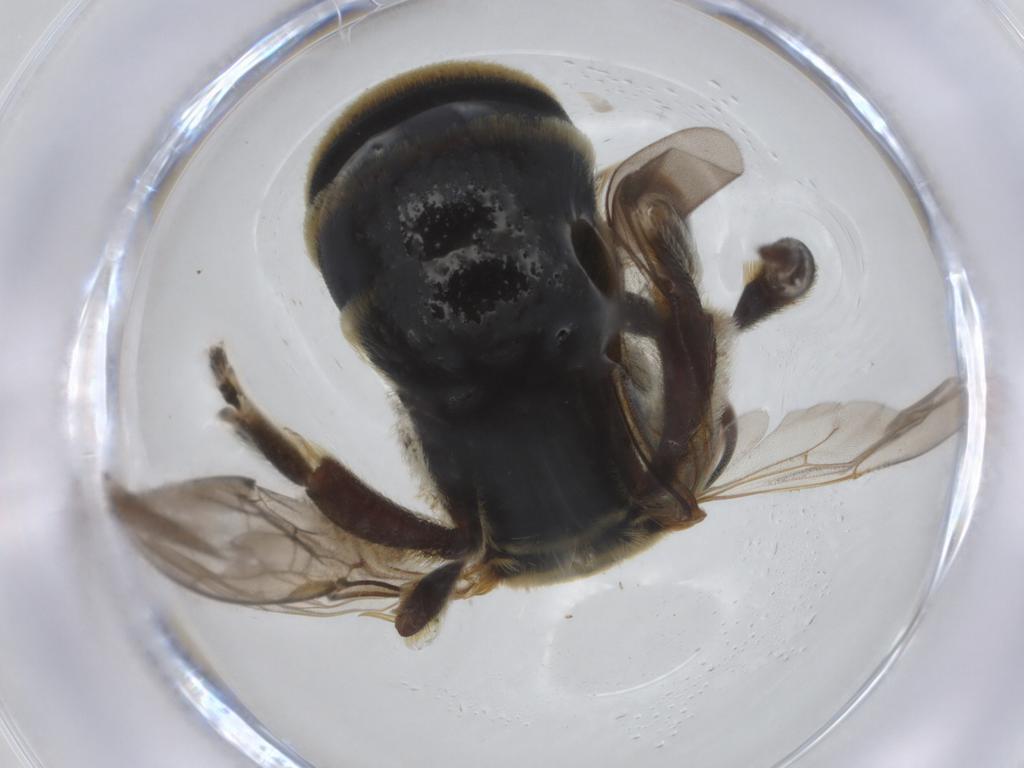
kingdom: Animalia
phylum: Arthropoda
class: Insecta
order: Hymenoptera
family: Halictidae
